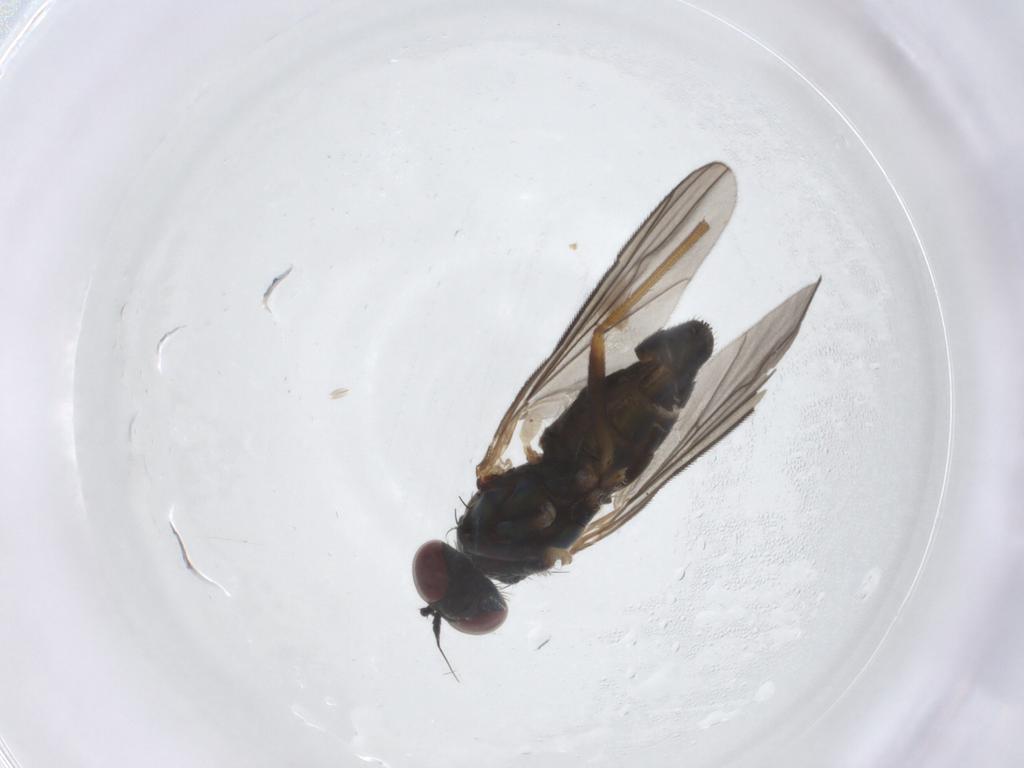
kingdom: Animalia
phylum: Arthropoda
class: Insecta
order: Diptera
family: Dolichopodidae
